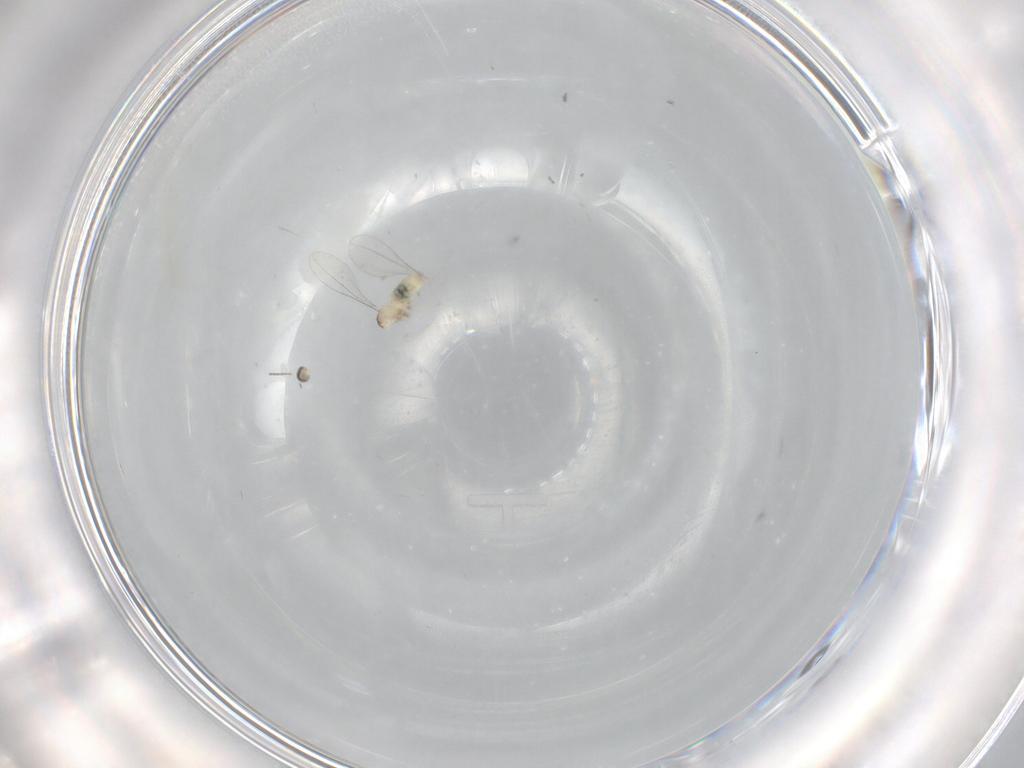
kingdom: Animalia
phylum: Arthropoda
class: Insecta
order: Diptera
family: Cecidomyiidae
